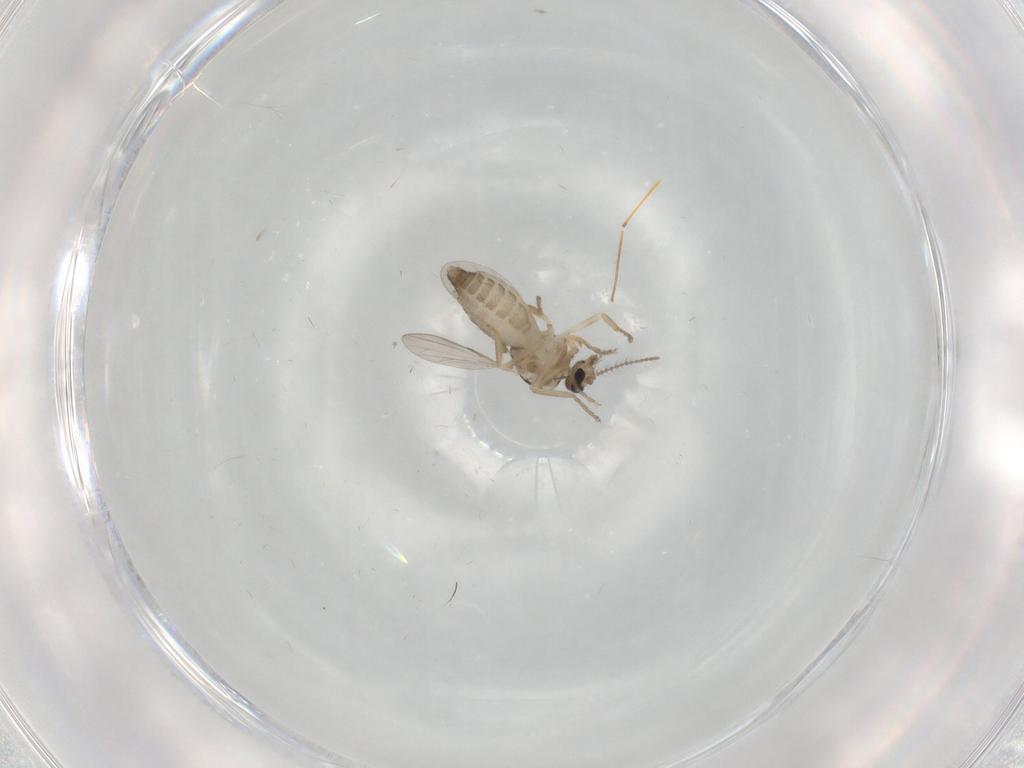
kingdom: Animalia
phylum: Arthropoda
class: Insecta
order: Diptera
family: Ceratopogonidae
